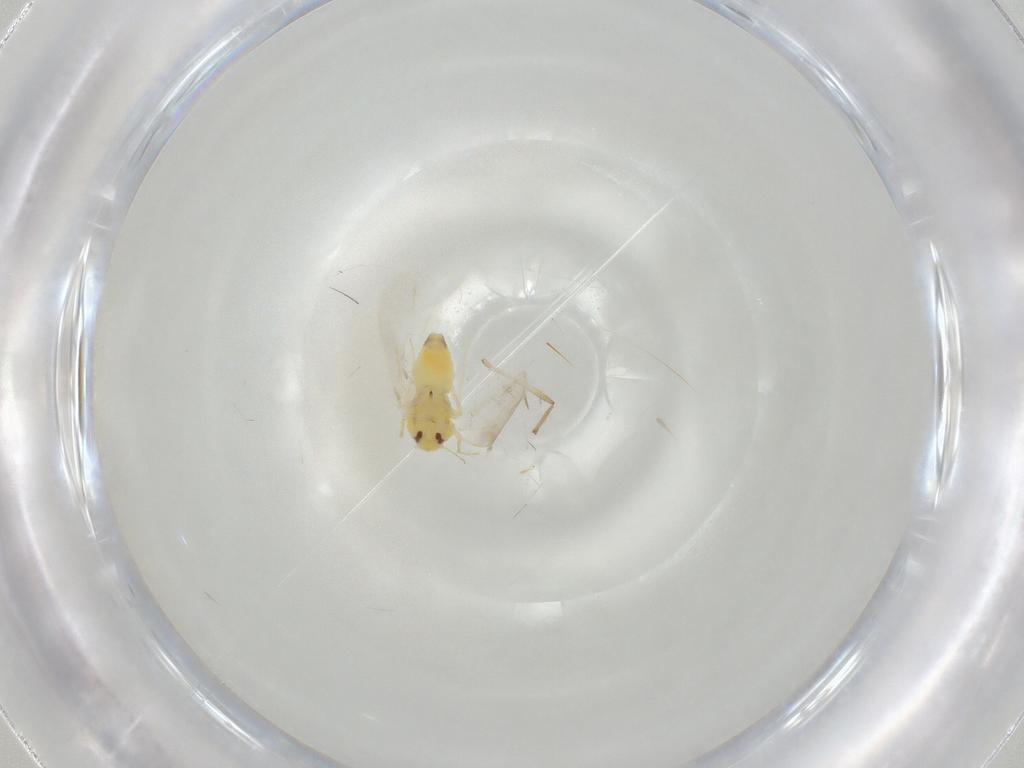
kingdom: Animalia
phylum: Arthropoda
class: Insecta
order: Hemiptera
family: Aleyrodidae
